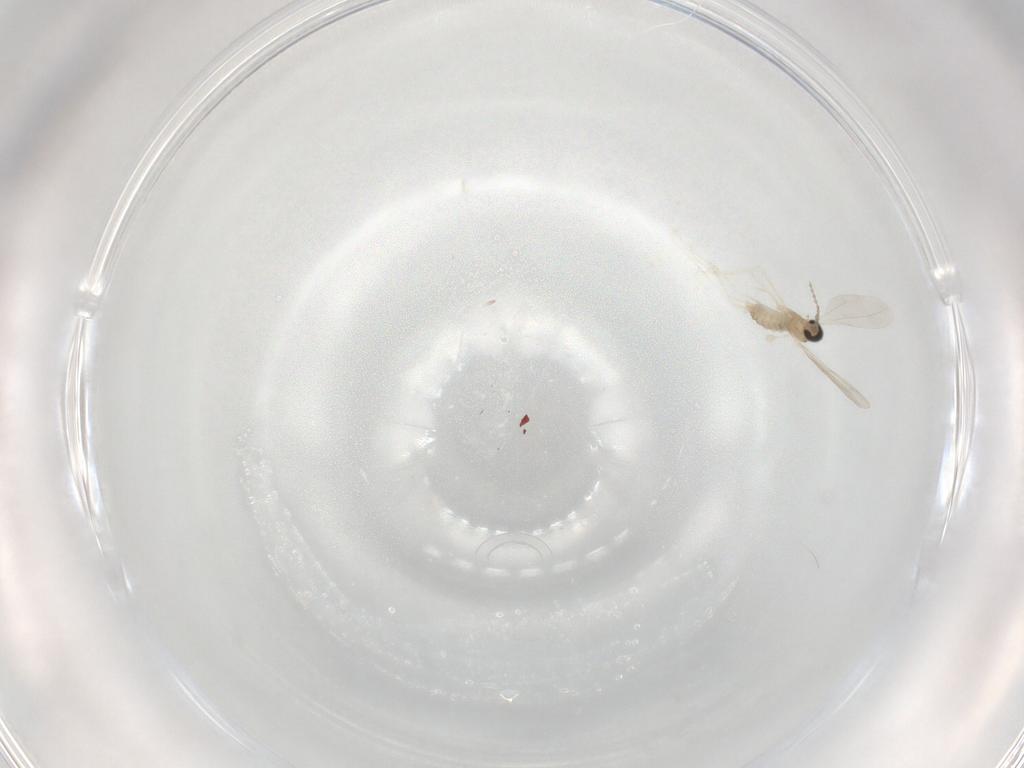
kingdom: Animalia
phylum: Arthropoda
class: Insecta
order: Diptera
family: Cecidomyiidae
